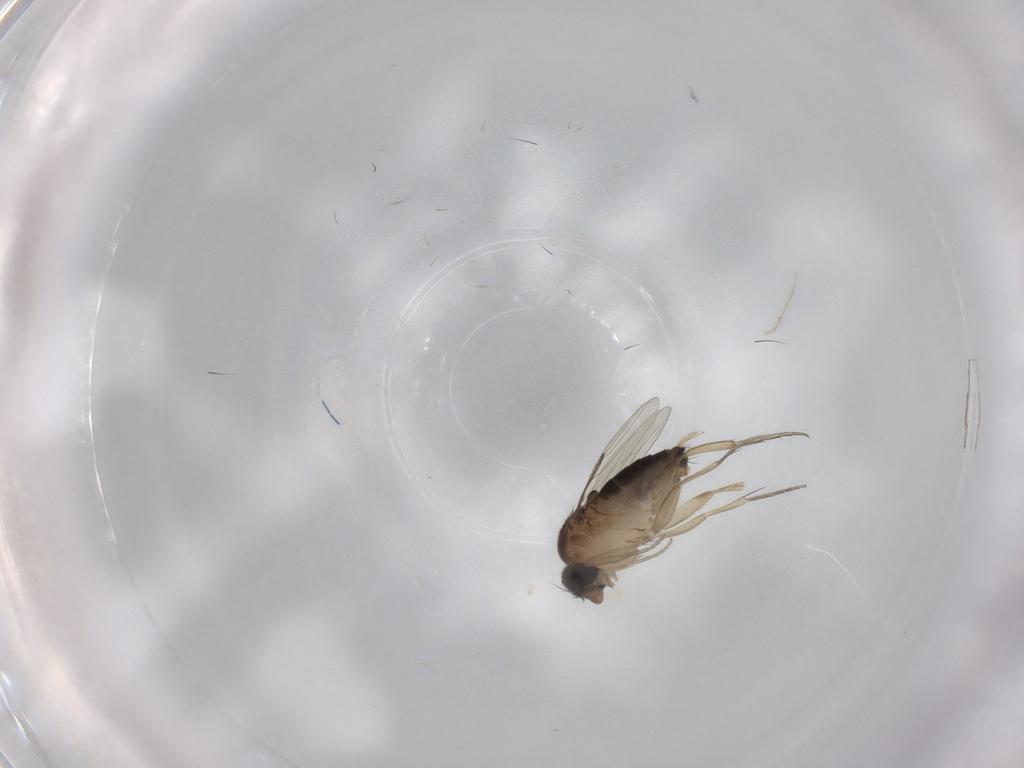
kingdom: Animalia
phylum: Arthropoda
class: Insecta
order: Diptera
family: Phoridae
